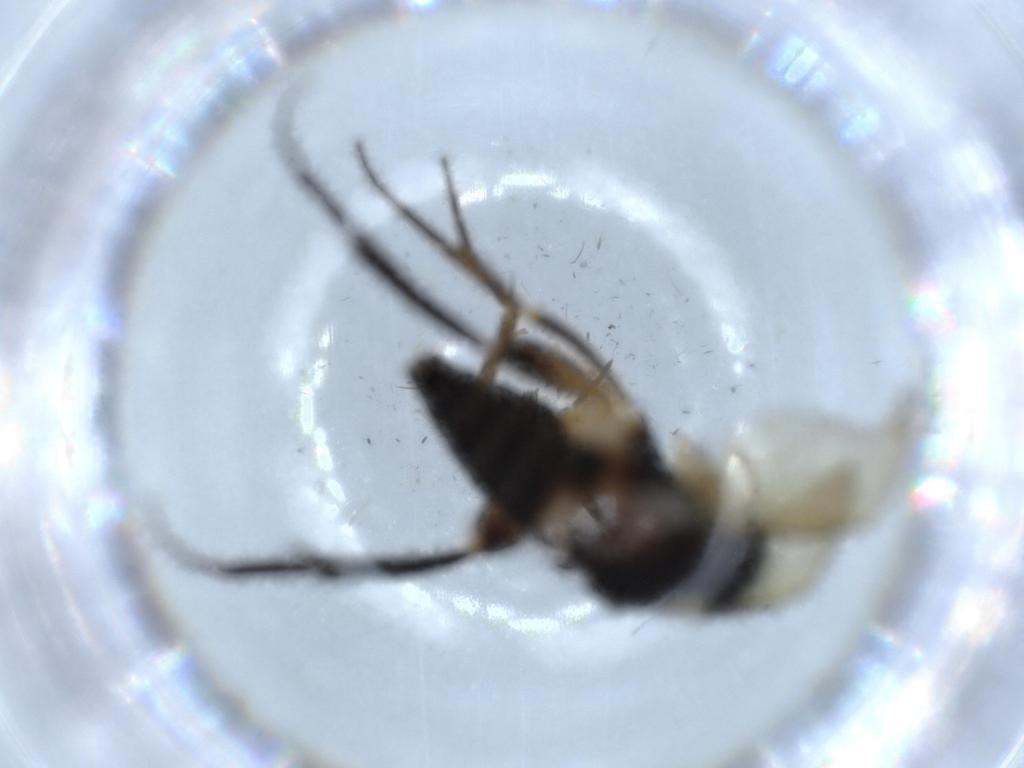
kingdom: Animalia
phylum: Arthropoda
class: Insecta
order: Diptera
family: Phoridae
